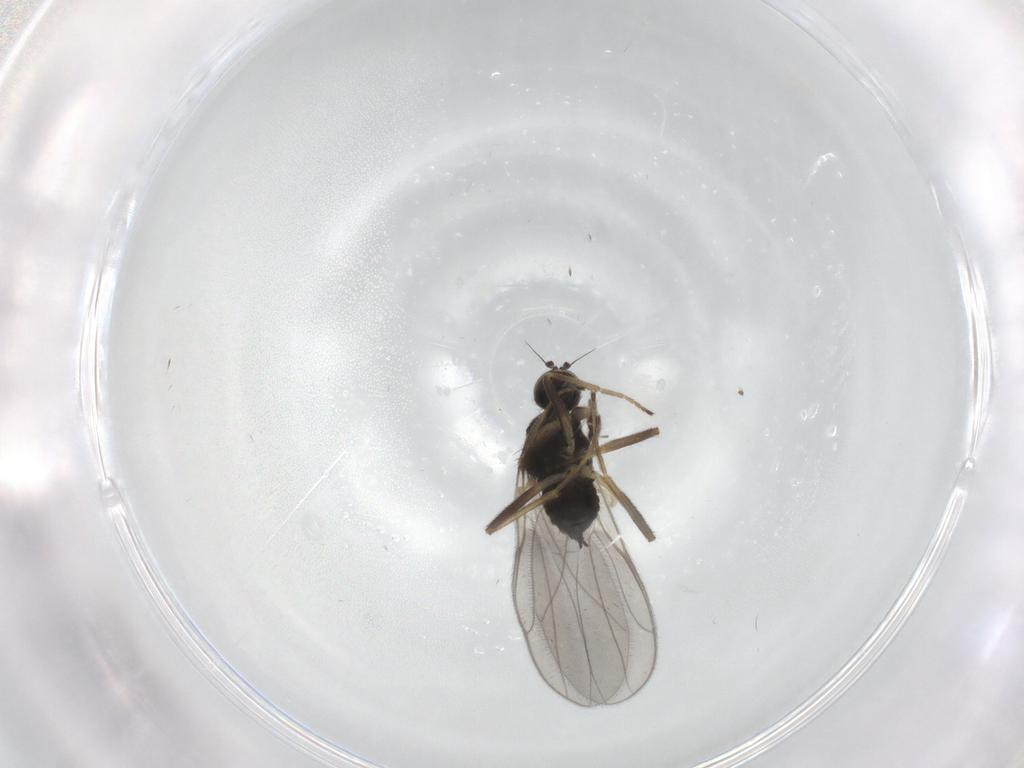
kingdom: Animalia
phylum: Arthropoda
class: Insecta
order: Diptera
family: Hybotidae
